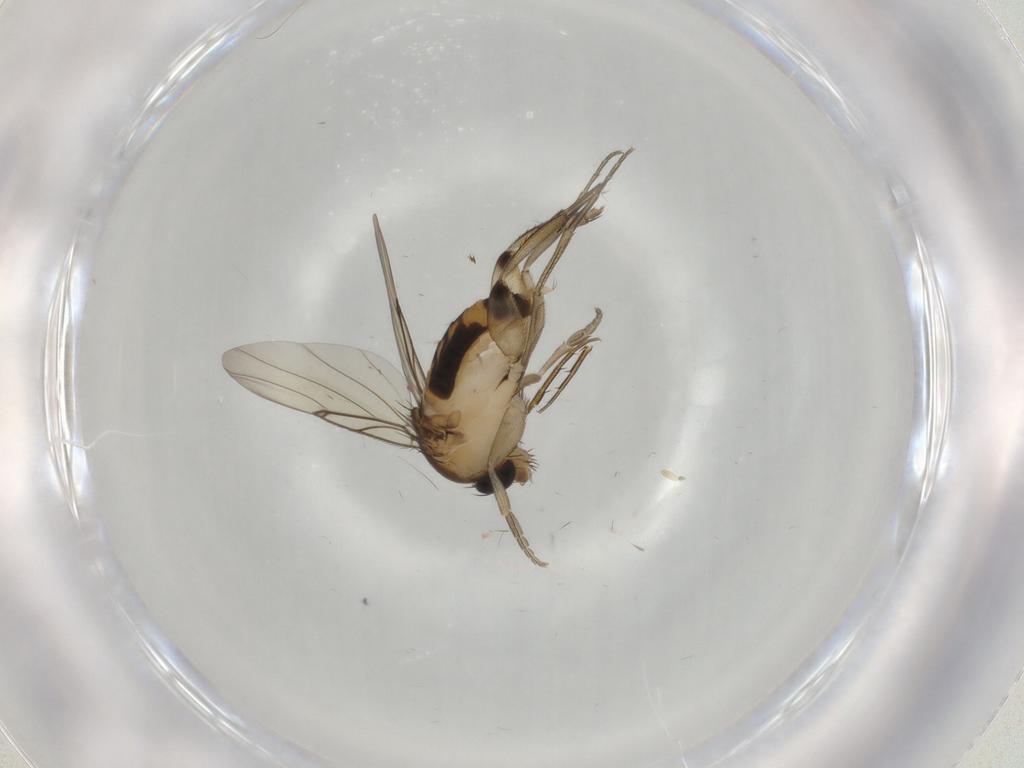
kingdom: Animalia
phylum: Arthropoda
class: Insecta
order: Diptera
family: Phoridae
